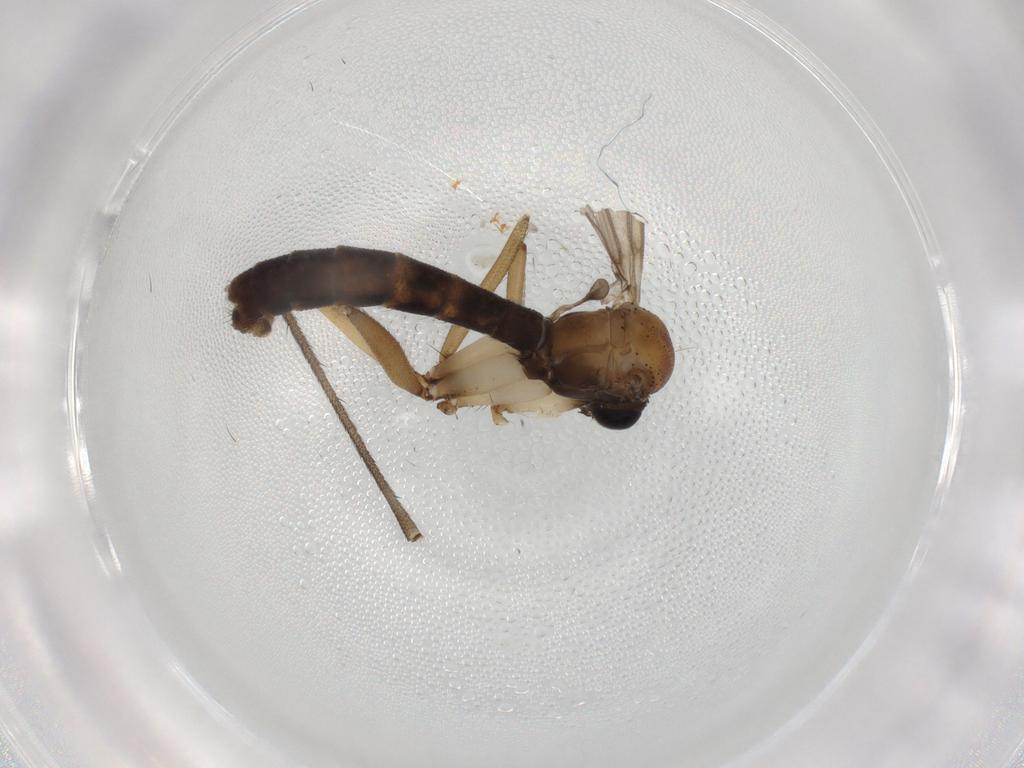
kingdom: Animalia
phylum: Arthropoda
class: Insecta
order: Diptera
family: Hybotidae
